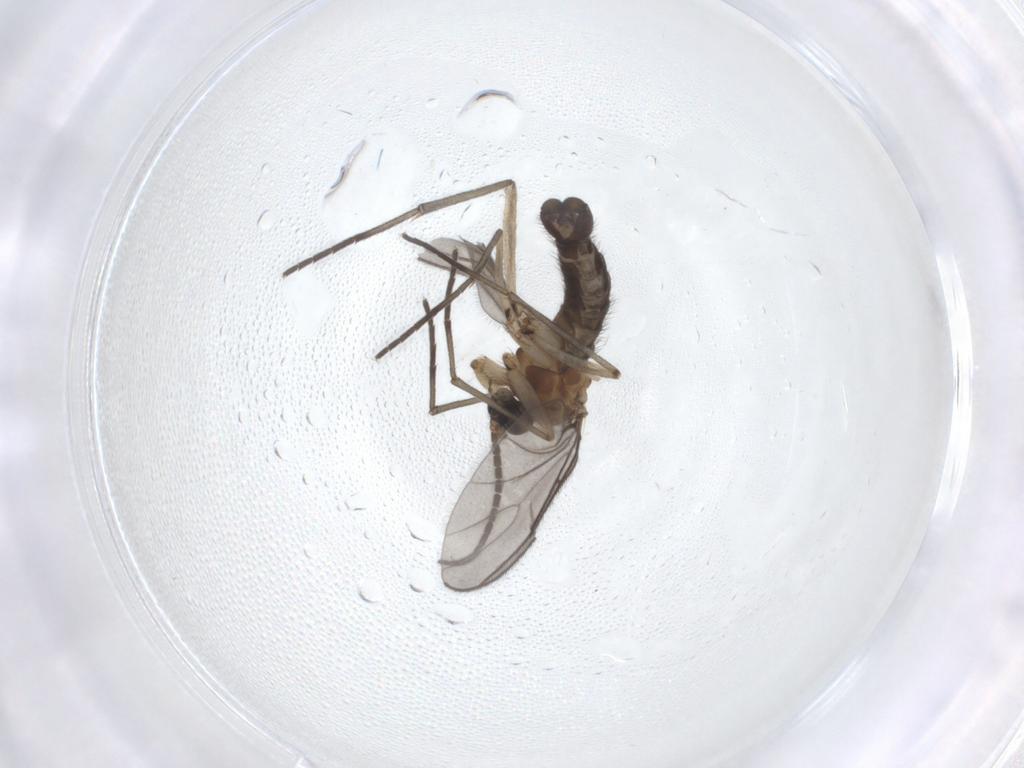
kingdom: Animalia
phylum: Arthropoda
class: Insecta
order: Diptera
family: Sciaridae
